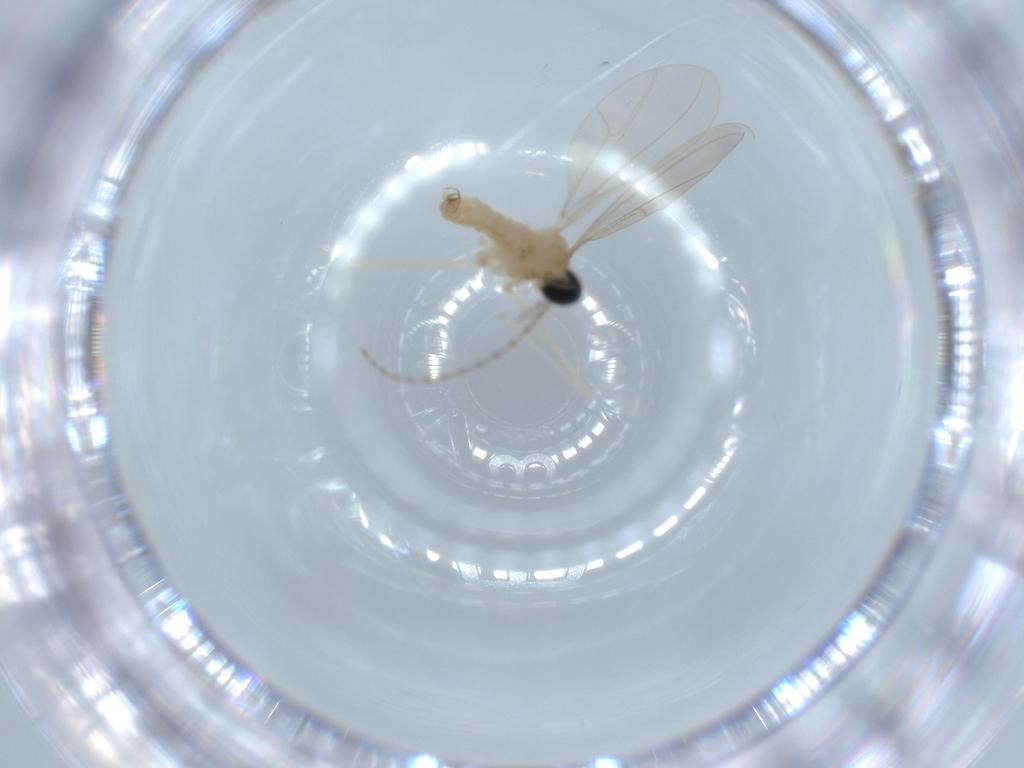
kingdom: Animalia
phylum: Arthropoda
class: Insecta
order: Diptera
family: Cecidomyiidae
